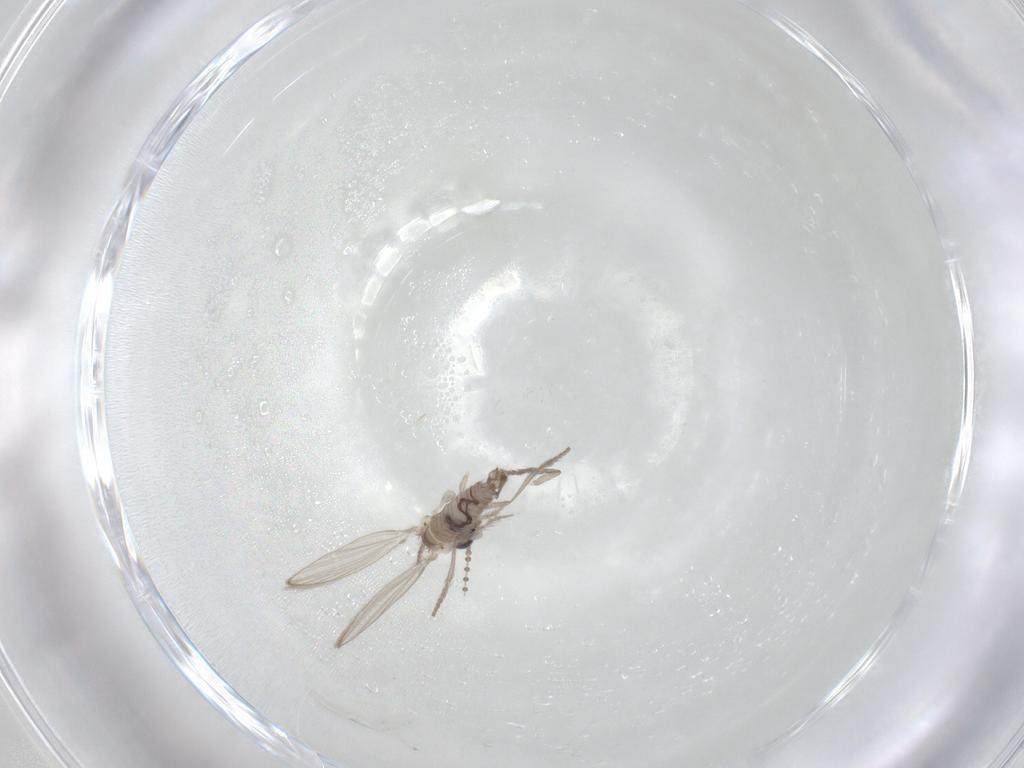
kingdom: Animalia
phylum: Arthropoda
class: Insecta
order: Diptera
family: Psychodidae
